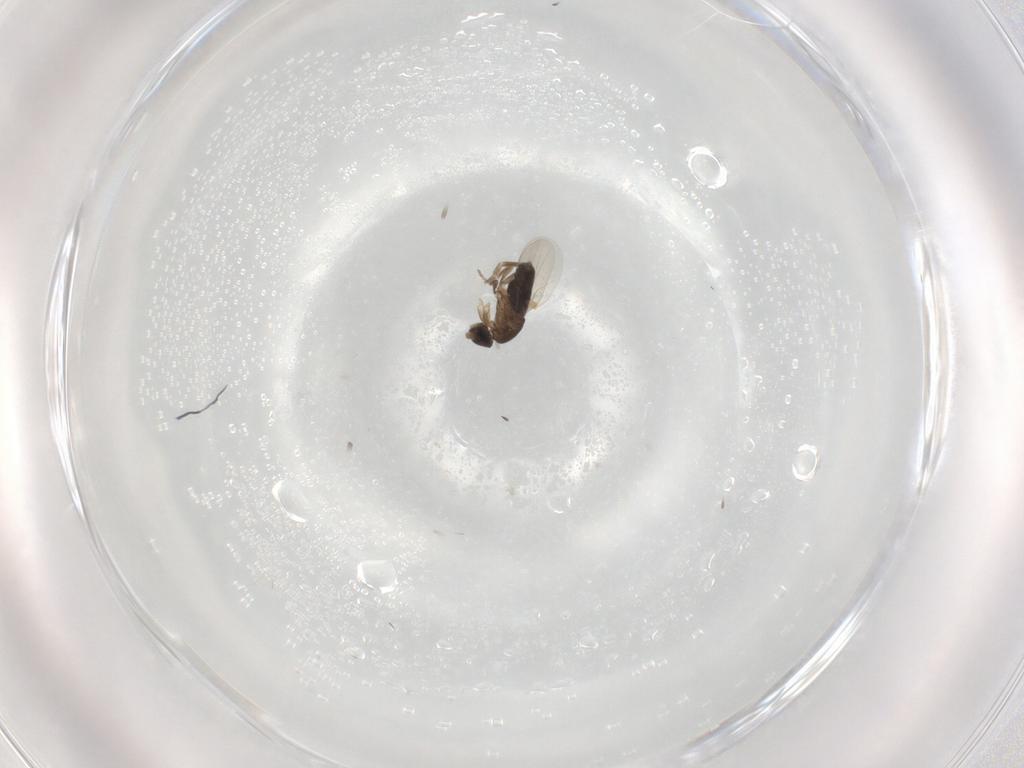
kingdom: Animalia
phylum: Arthropoda
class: Insecta
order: Diptera
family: Phoridae
